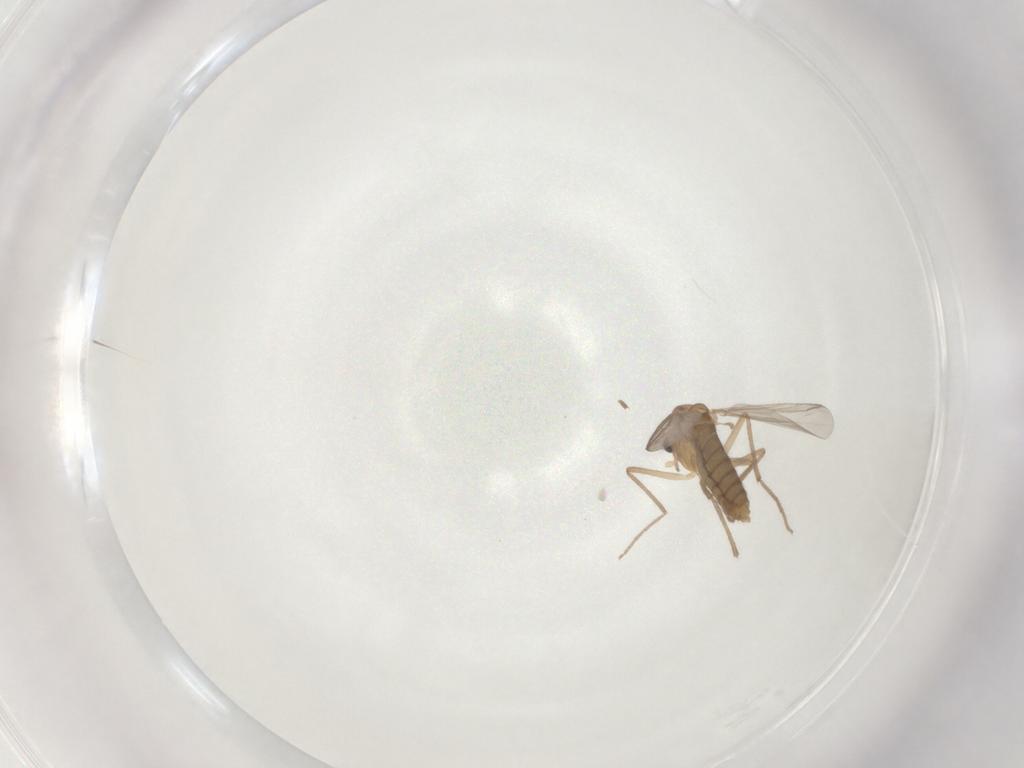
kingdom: Animalia
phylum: Arthropoda
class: Insecta
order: Diptera
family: Chironomidae
